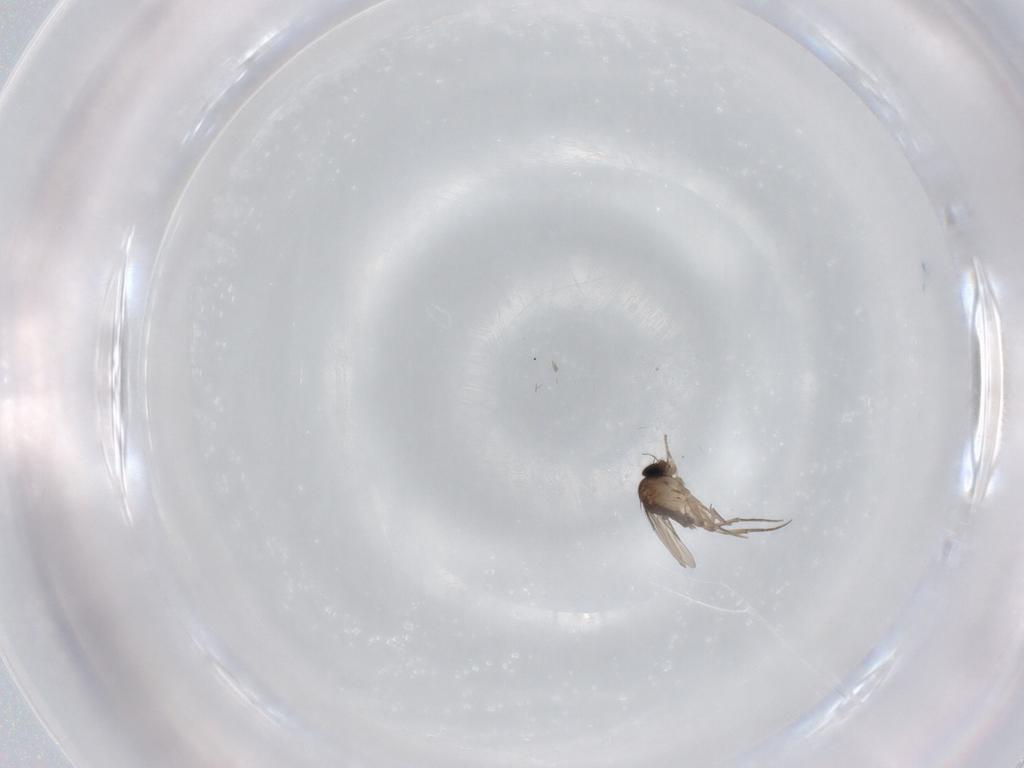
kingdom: Animalia
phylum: Arthropoda
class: Insecta
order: Diptera
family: Phoridae
